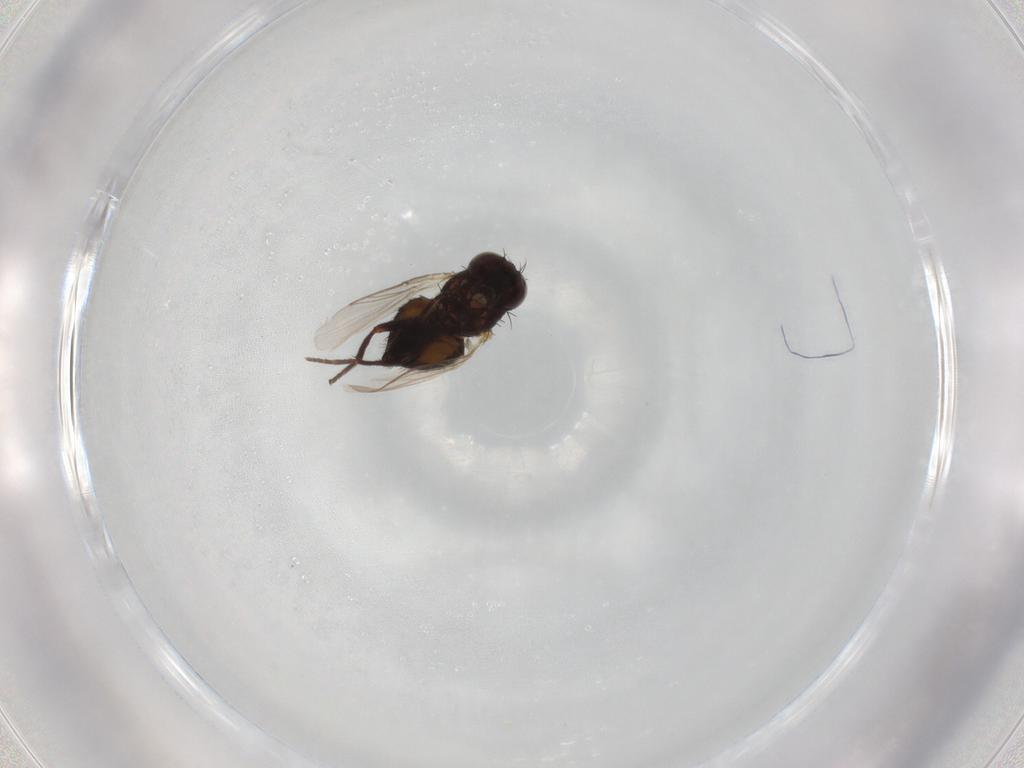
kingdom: Animalia
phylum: Arthropoda
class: Insecta
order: Diptera
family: Agromyzidae
